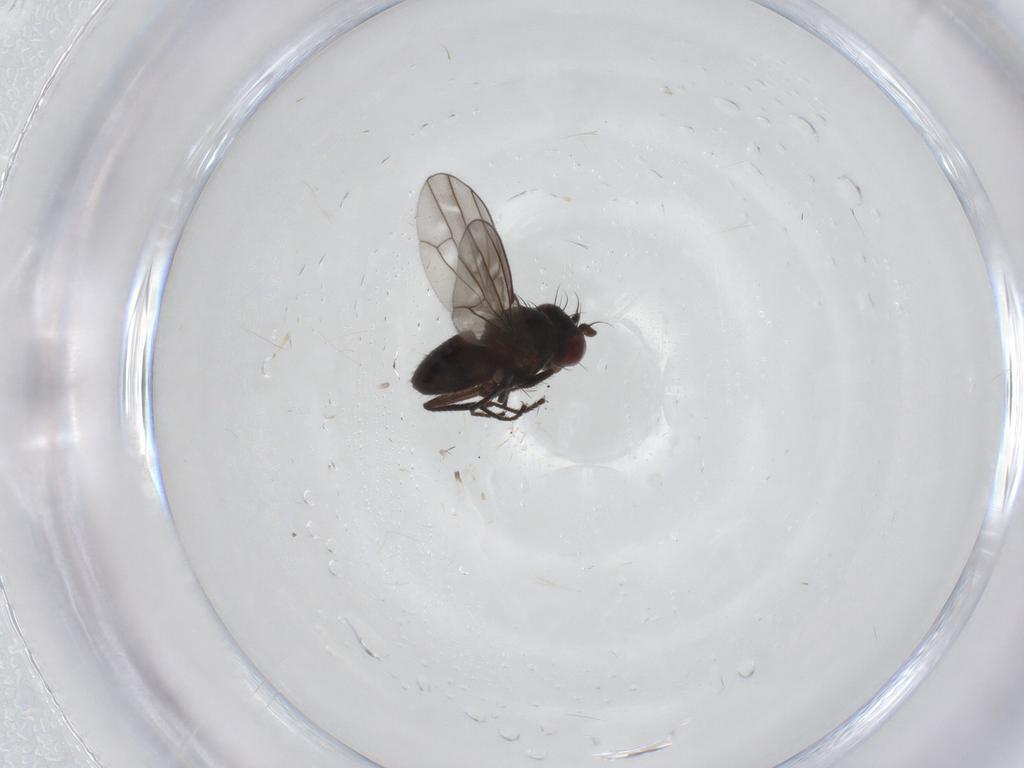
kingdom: Animalia
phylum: Arthropoda
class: Insecta
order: Diptera
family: Ephydridae
